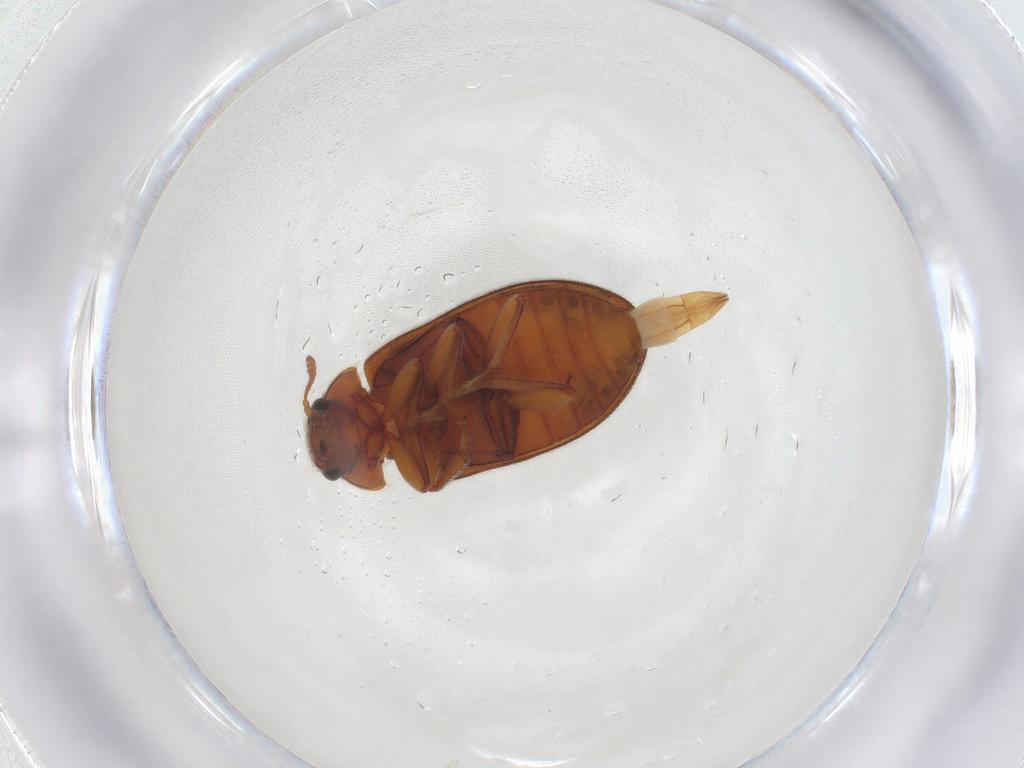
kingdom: Animalia
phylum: Arthropoda
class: Insecta
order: Coleoptera
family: Byturidae
